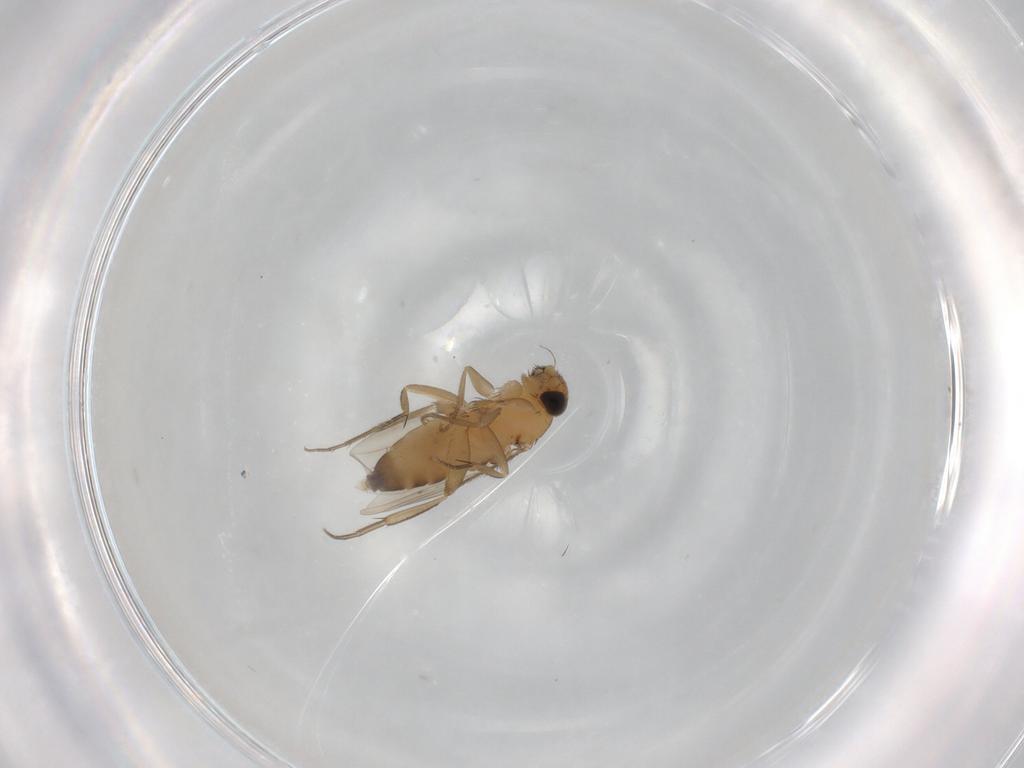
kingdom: Animalia
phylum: Arthropoda
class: Insecta
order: Diptera
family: Phoridae
